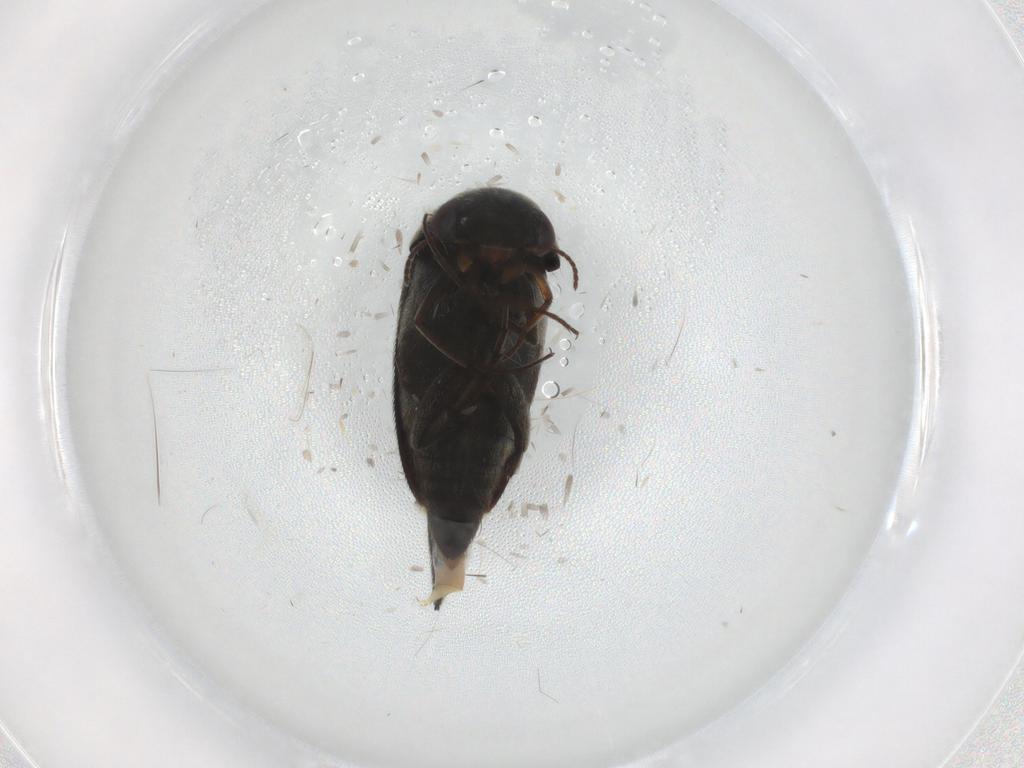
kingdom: Animalia
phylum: Arthropoda
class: Insecta
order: Coleoptera
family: Mordellidae
